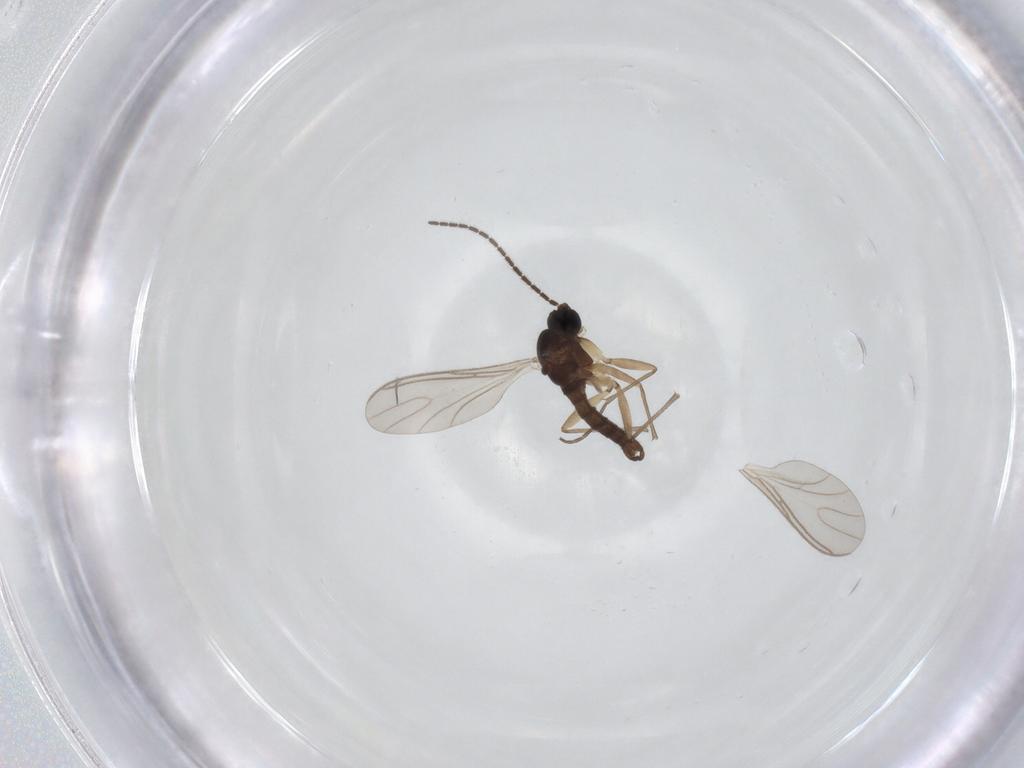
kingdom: Animalia
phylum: Arthropoda
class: Insecta
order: Diptera
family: Sciaridae
